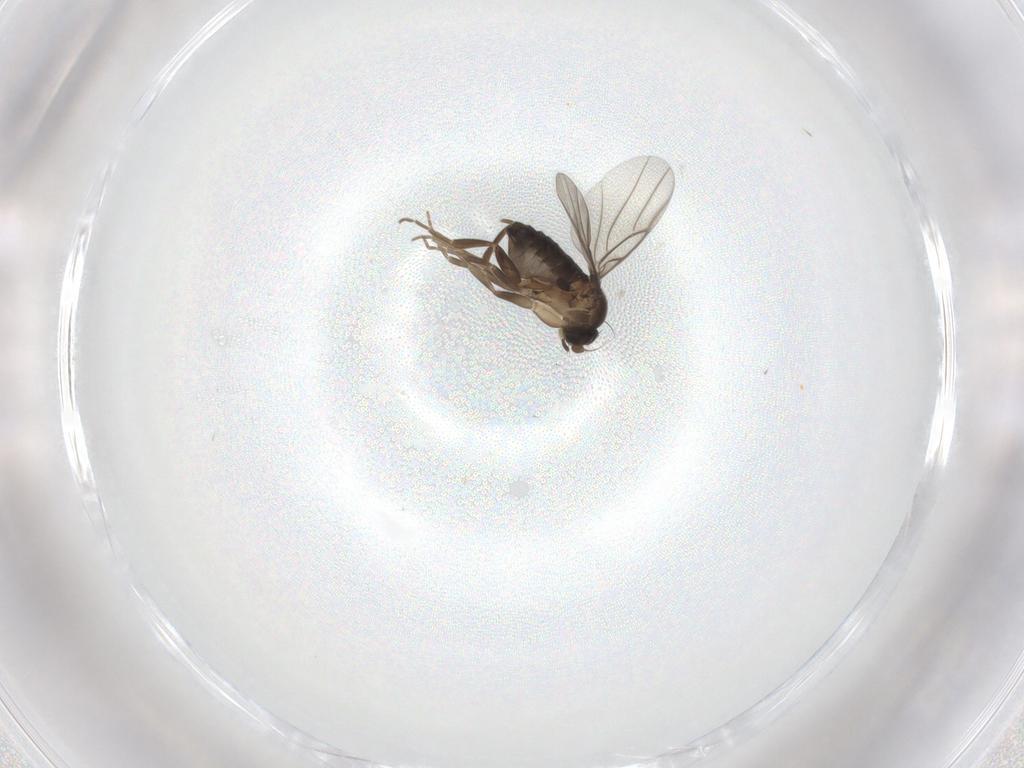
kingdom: Animalia
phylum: Arthropoda
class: Insecta
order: Diptera
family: Phoridae
